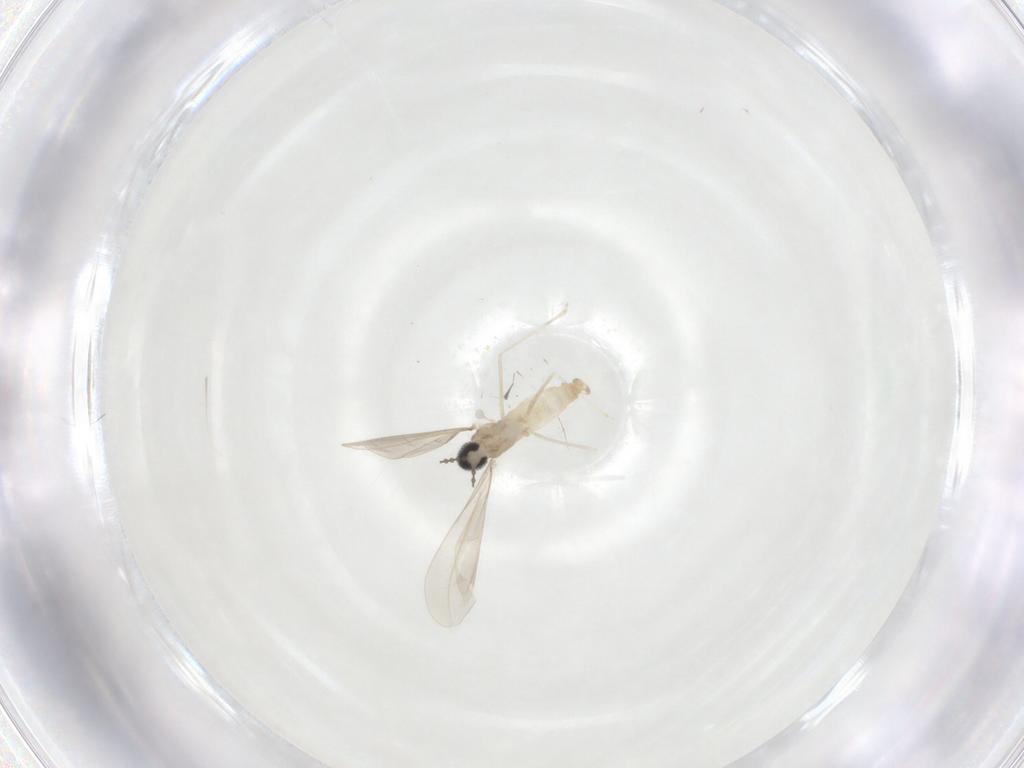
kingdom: Animalia
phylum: Arthropoda
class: Insecta
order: Diptera
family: Cecidomyiidae
